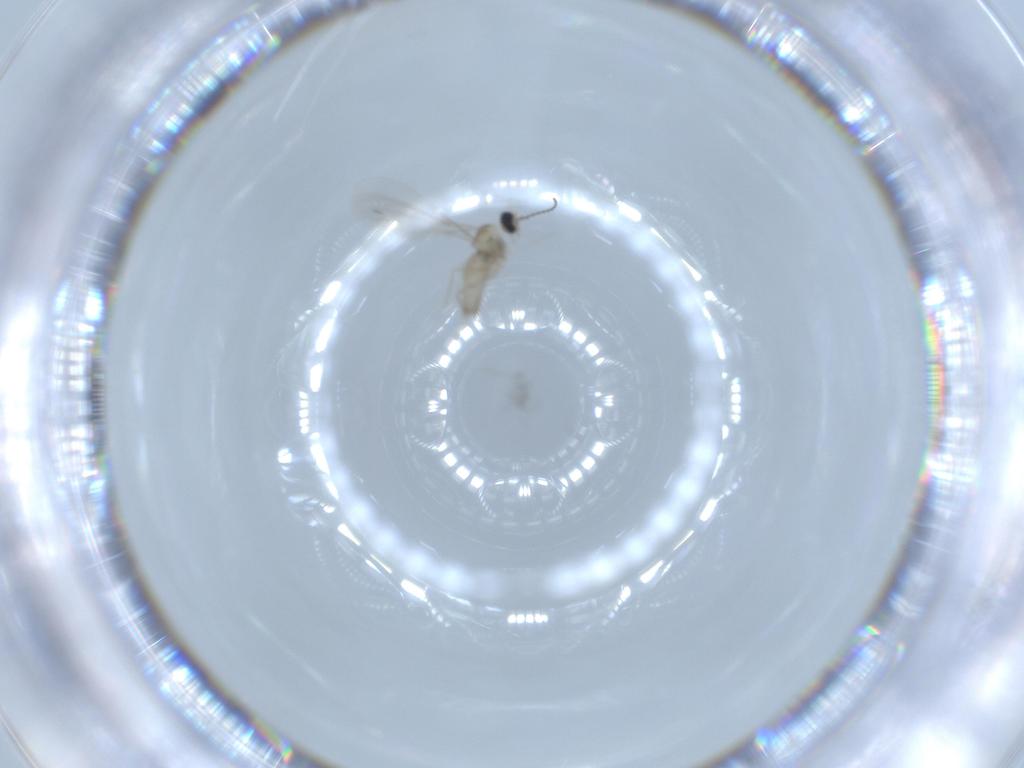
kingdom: Animalia
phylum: Arthropoda
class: Insecta
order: Diptera
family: Cecidomyiidae
